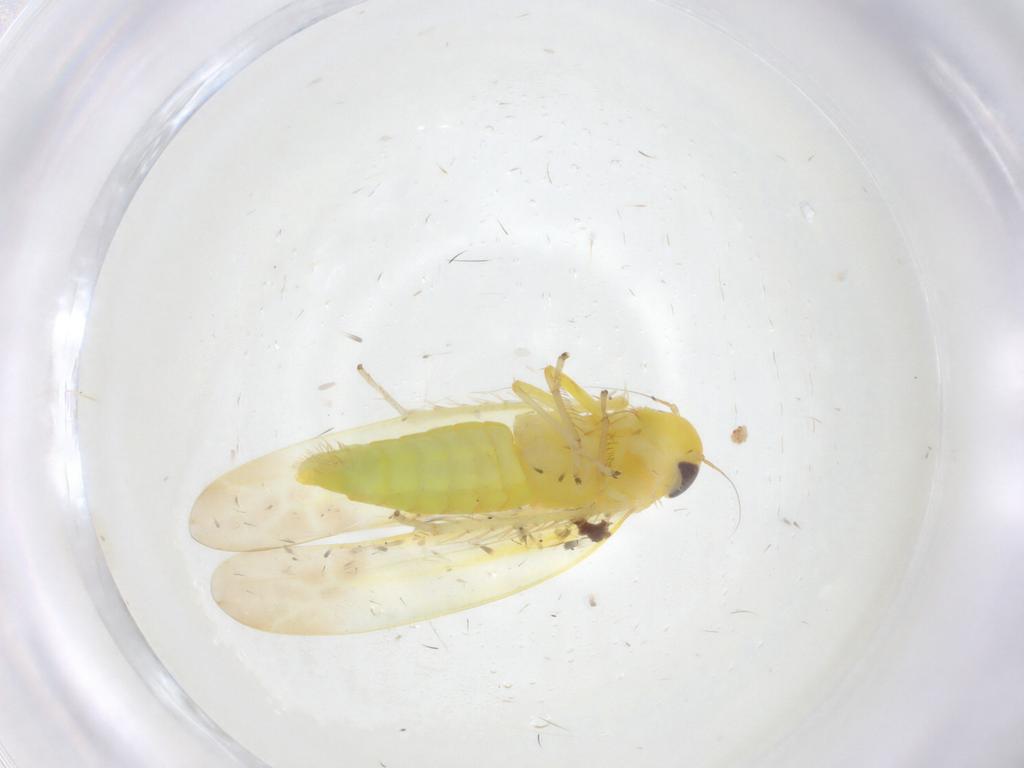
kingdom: Animalia
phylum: Arthropoda
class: Insecta
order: Hemiptera
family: Cicadellidae
